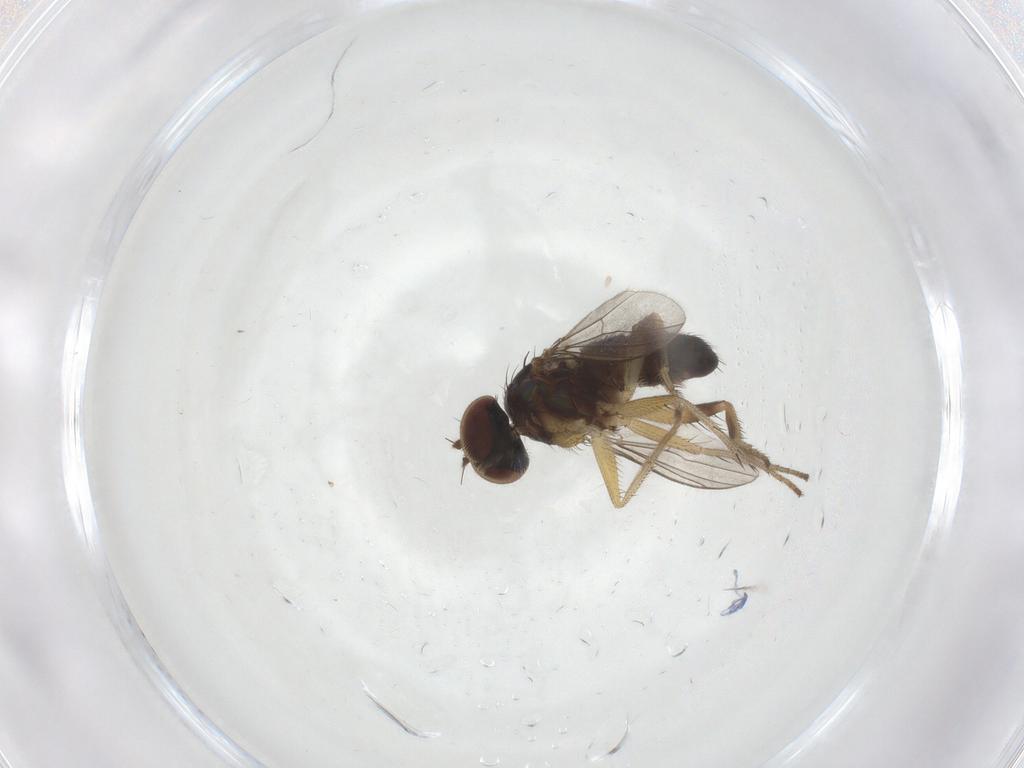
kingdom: Animalia
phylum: Arthropoda
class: Insecta
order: Diptera
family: Dolichopodidae
